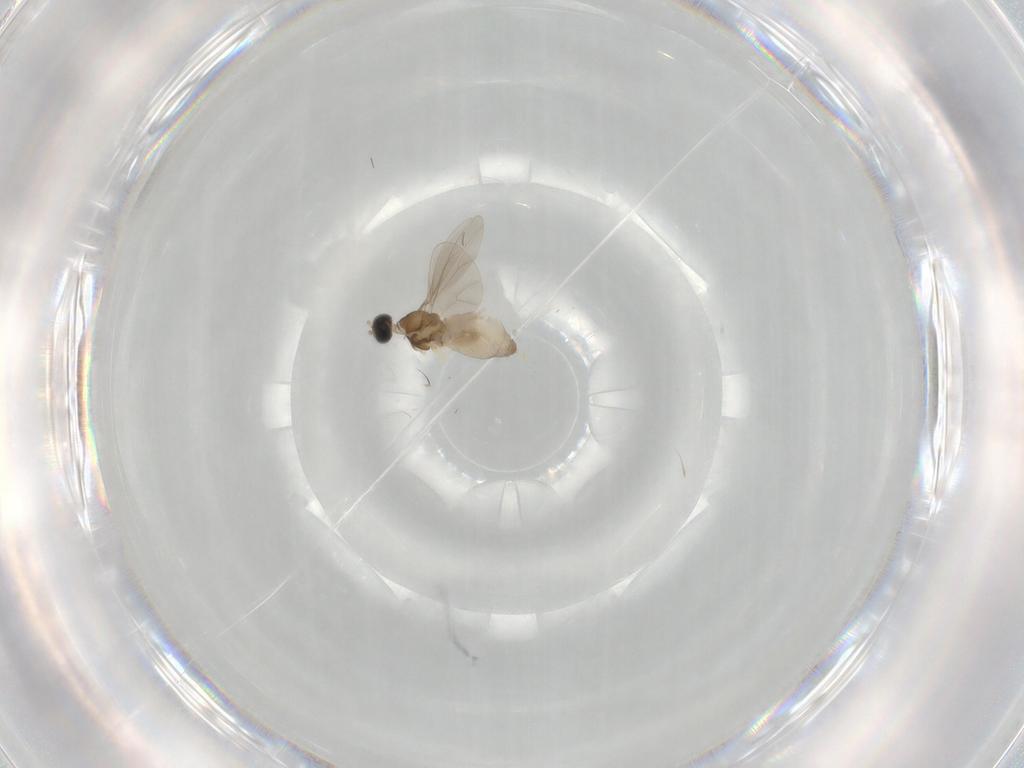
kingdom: Animalia
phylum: Arthropoda
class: Insecta
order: Diptera
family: Cecidomyiidae
